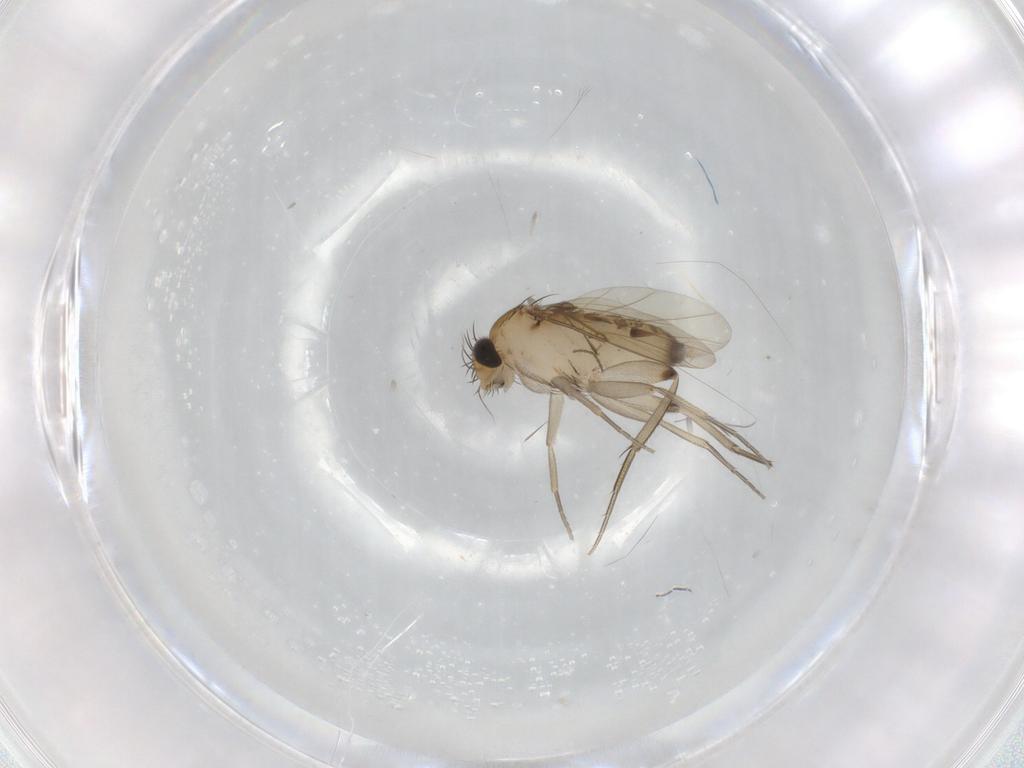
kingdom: Animalia
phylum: Arthropoda
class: Insecta
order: Diptera
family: Phoridae
